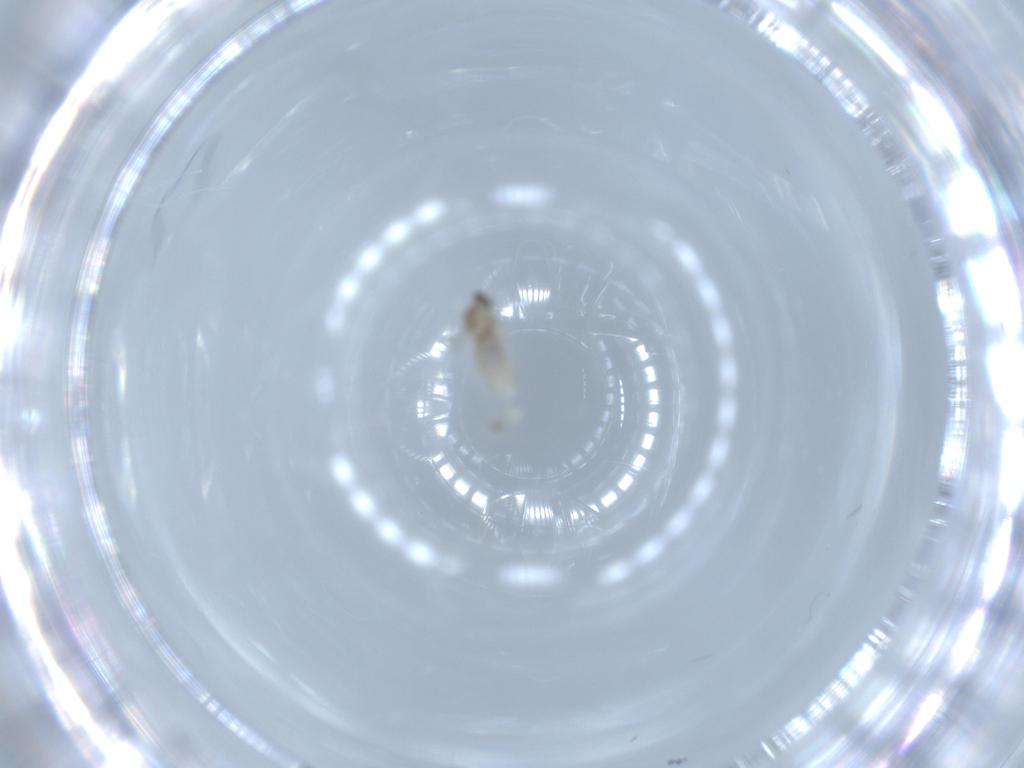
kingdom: Animalia
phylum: Arthropoda
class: Insecta
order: Diptera
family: Cecidomyiidae
